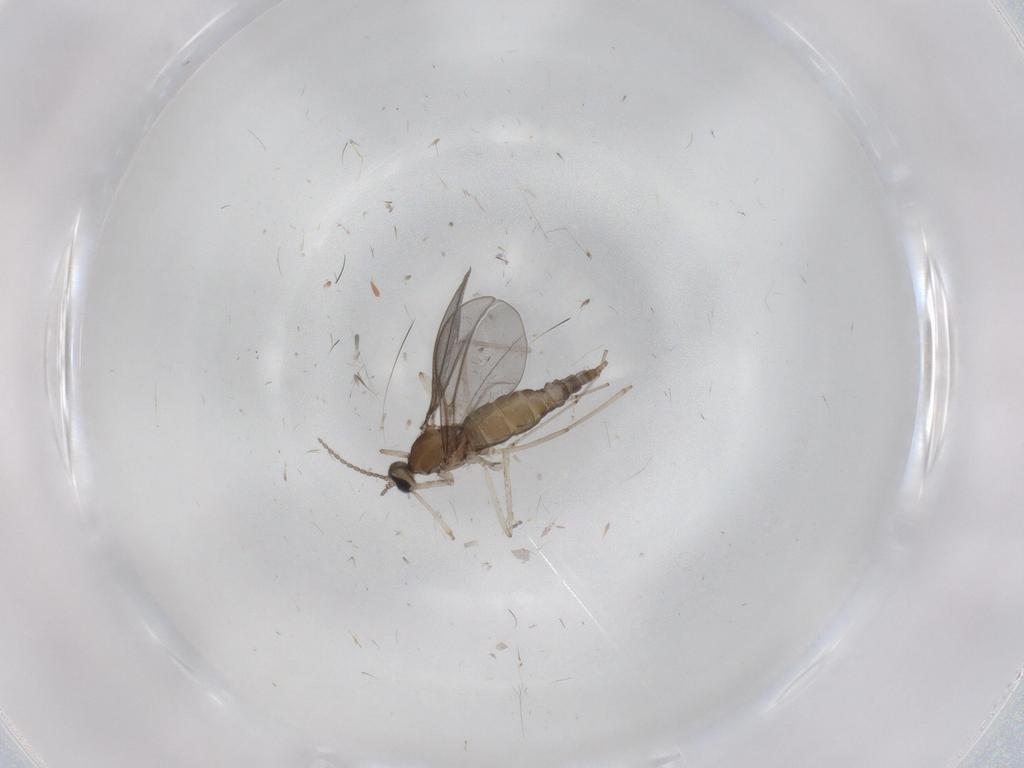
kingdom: Animalia
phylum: Arthropoda
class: Insecta
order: Diptera
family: Cecidomyiidae
